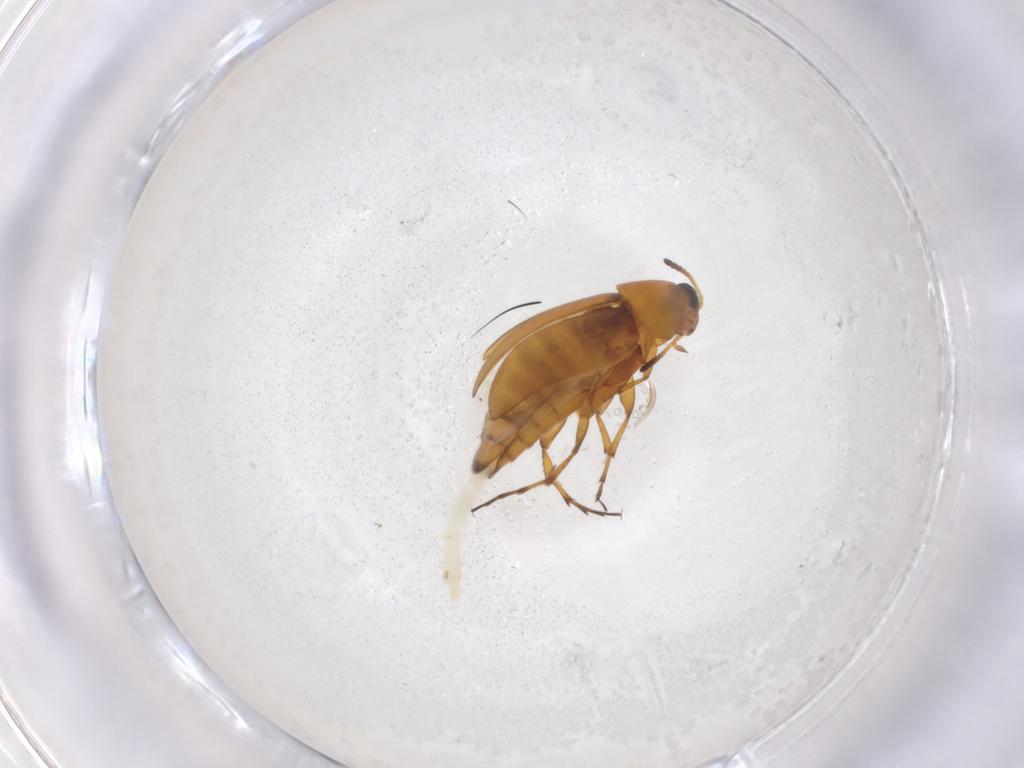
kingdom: Animalia
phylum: Arthropoda
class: Insecta
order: Coleoptera
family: Scraptiidae
